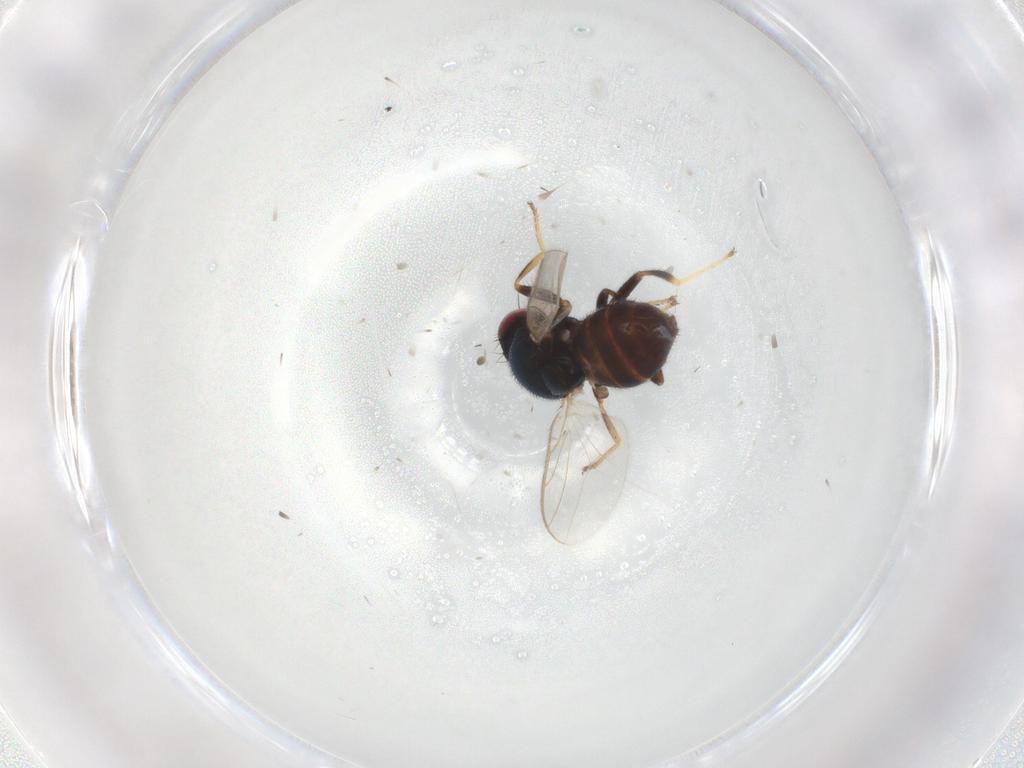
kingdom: Animalia
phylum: Arthropoda
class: Insecta
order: Diptera
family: Chloropidae
